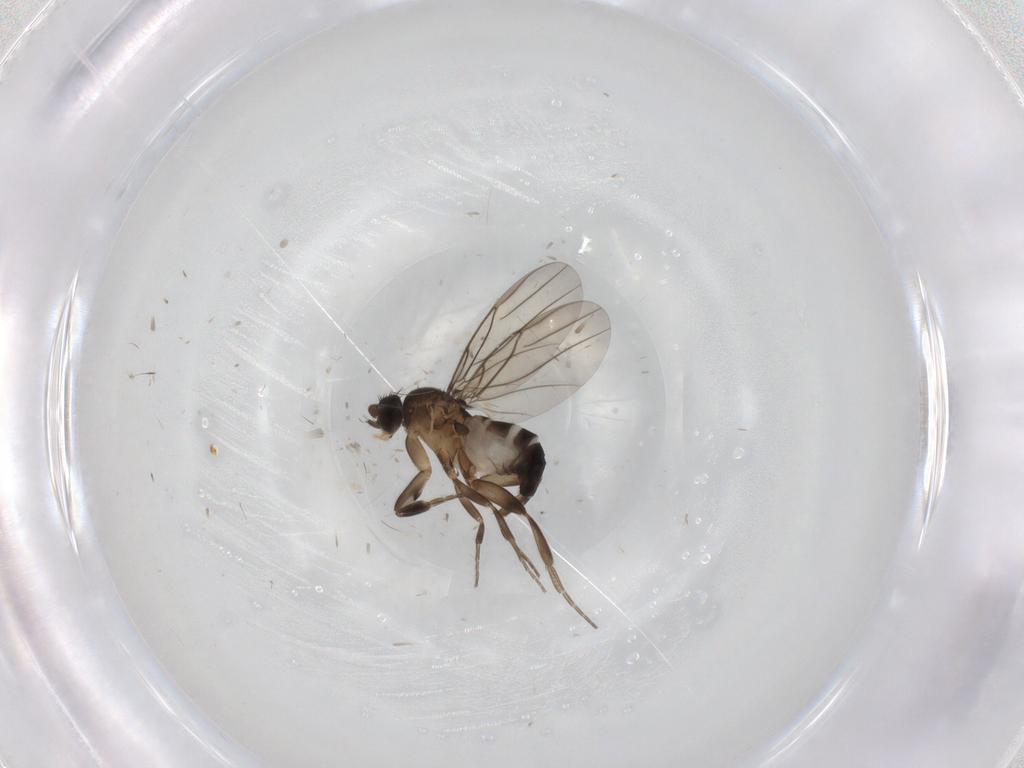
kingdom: Animalia
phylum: Arthropoda
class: Insecta
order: Diptera
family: Phoridae
